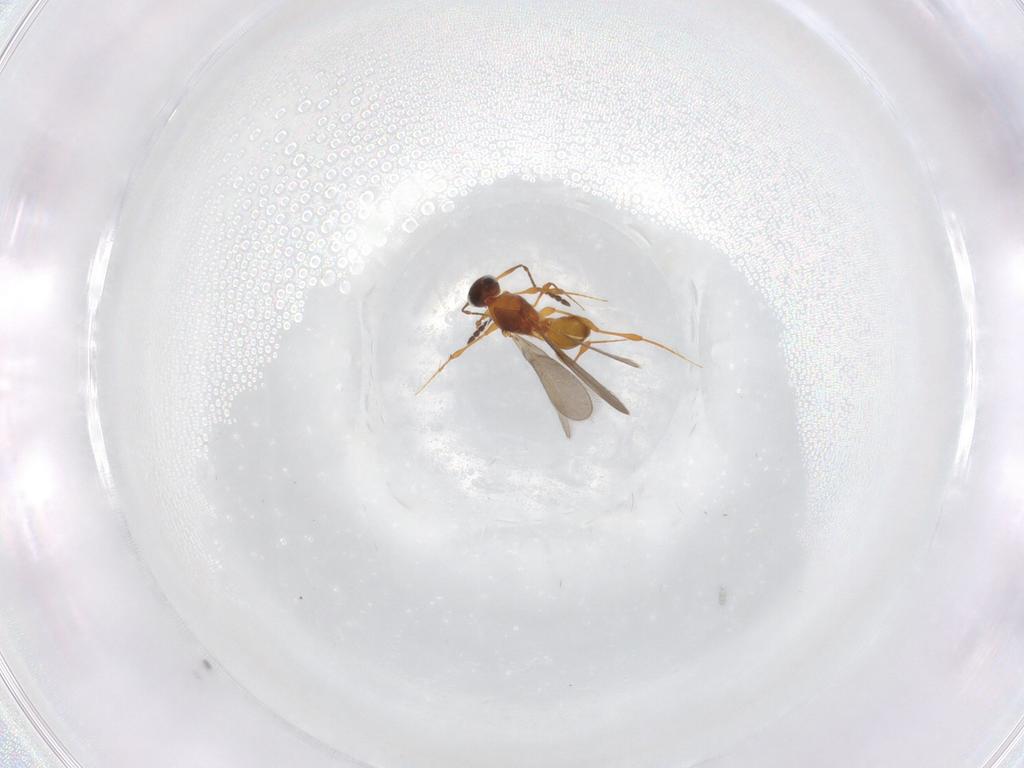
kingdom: Animalia
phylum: Arthropoda
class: Insecta
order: Hymenoptera
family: Platygastridae
